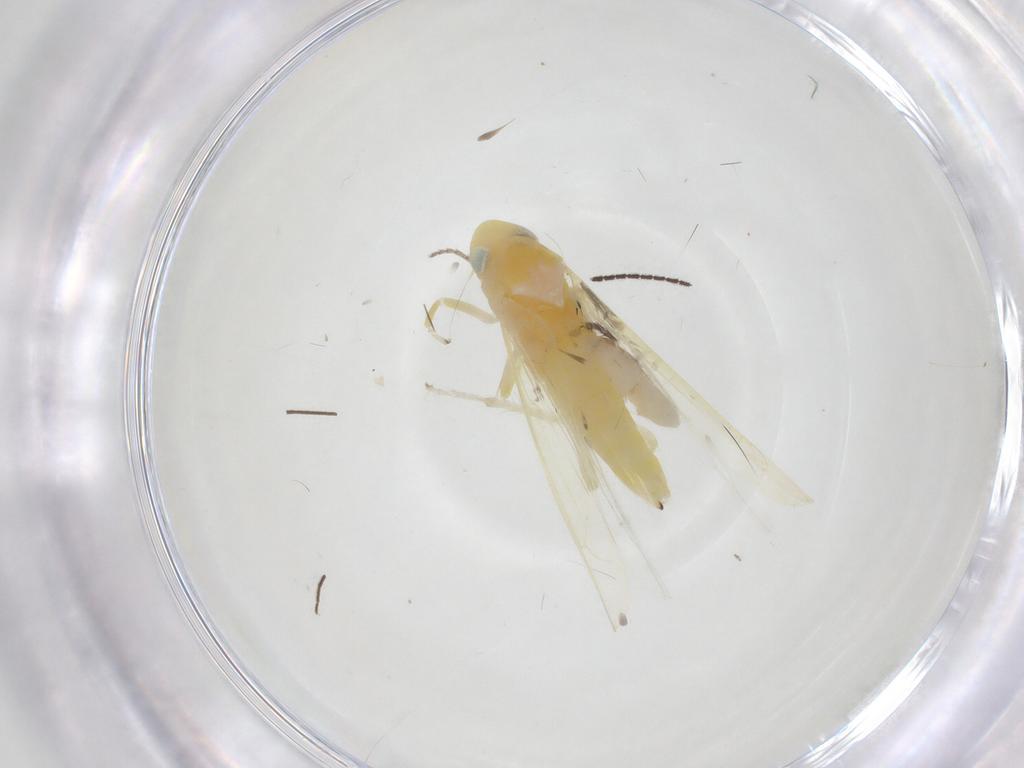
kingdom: Animalia
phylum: Arthropoda
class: Insecta
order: Hemiptera
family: Cicadellidae
